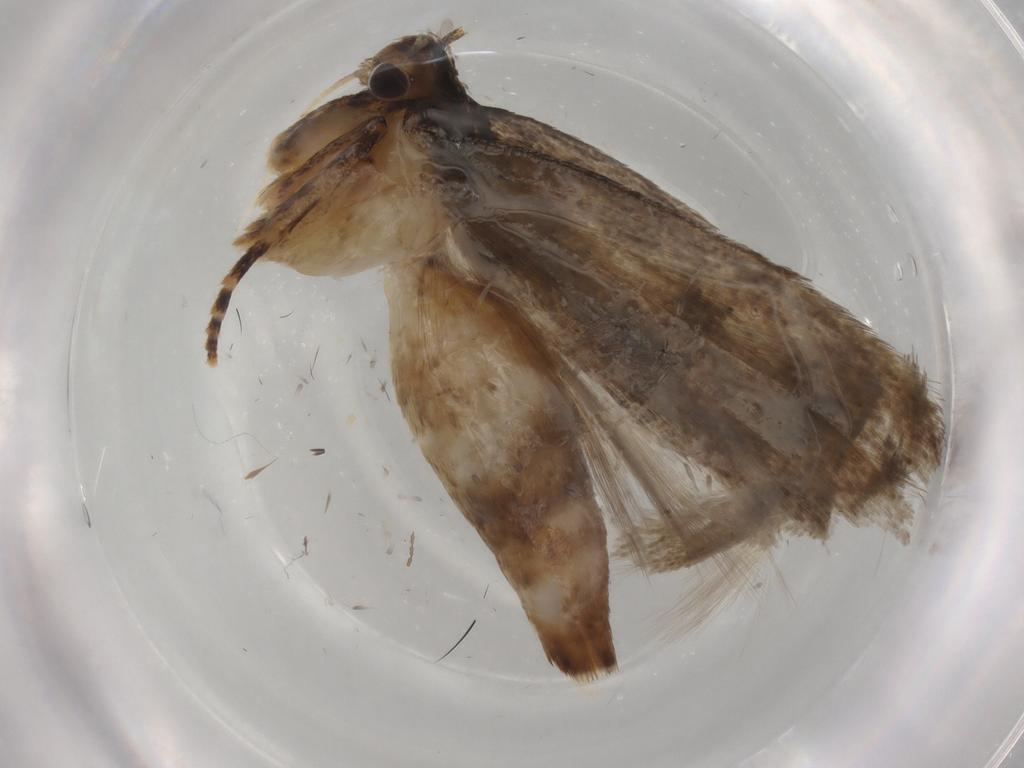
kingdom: Animalia
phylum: Arthropoda
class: Insecta
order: Lepidoptera
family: Gelechiidae
